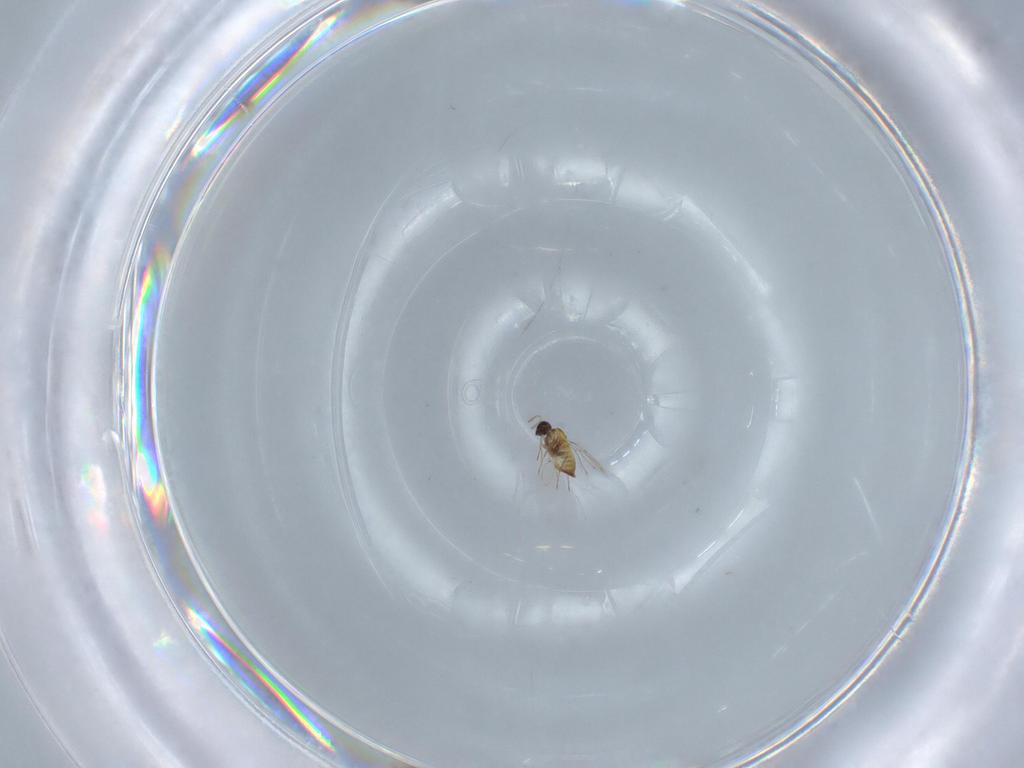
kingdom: Animalia
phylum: Arthropoda
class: Insecta
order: Hymenoptera
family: Trichogrammatidae
